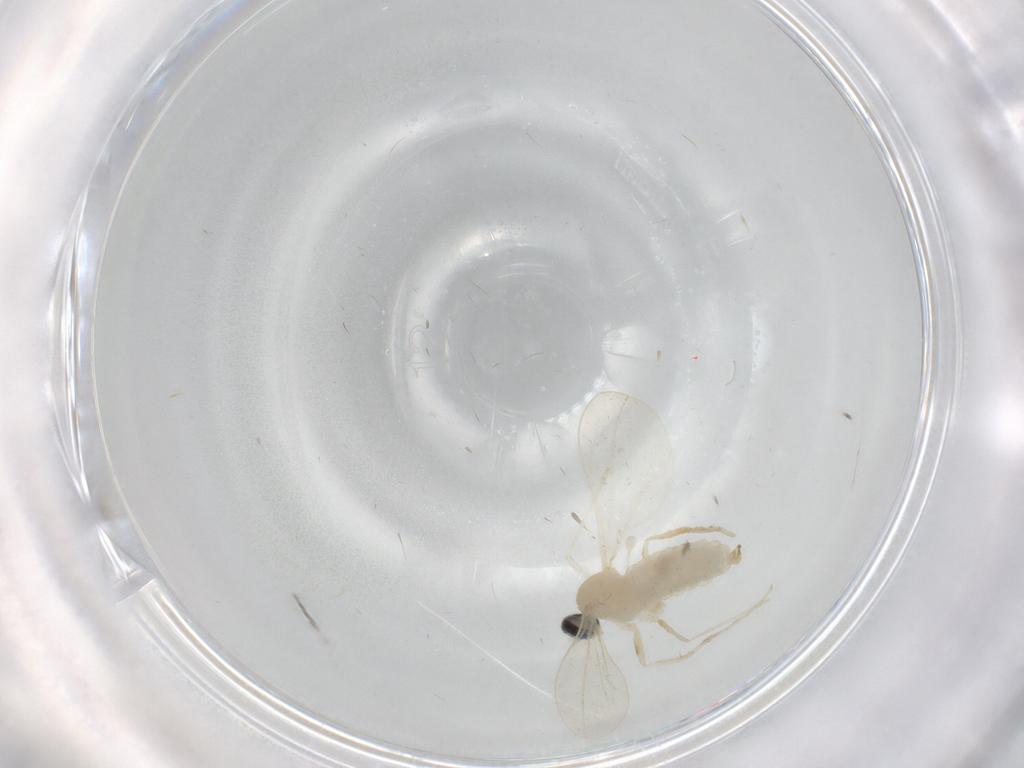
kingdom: Animalia
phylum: Arthropoda
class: Insecta
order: Diptera
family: Cecidomyiidae
